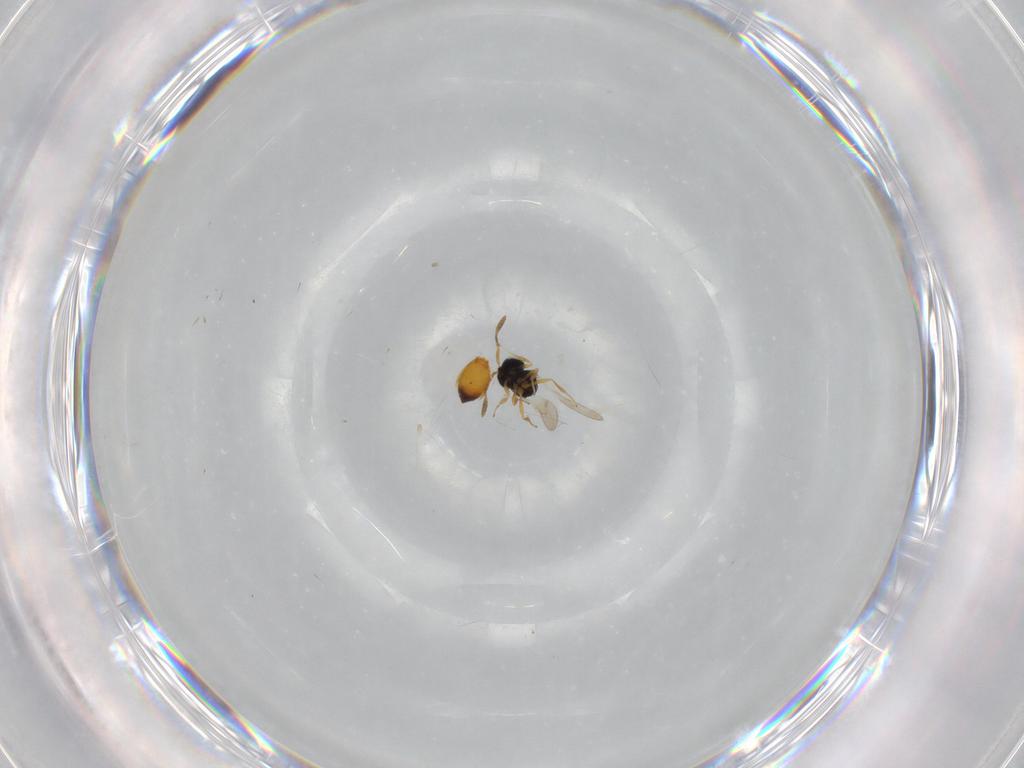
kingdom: Animalia
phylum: Arthropoda
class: Insecta
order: Hymenoptera
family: Scelionidae
